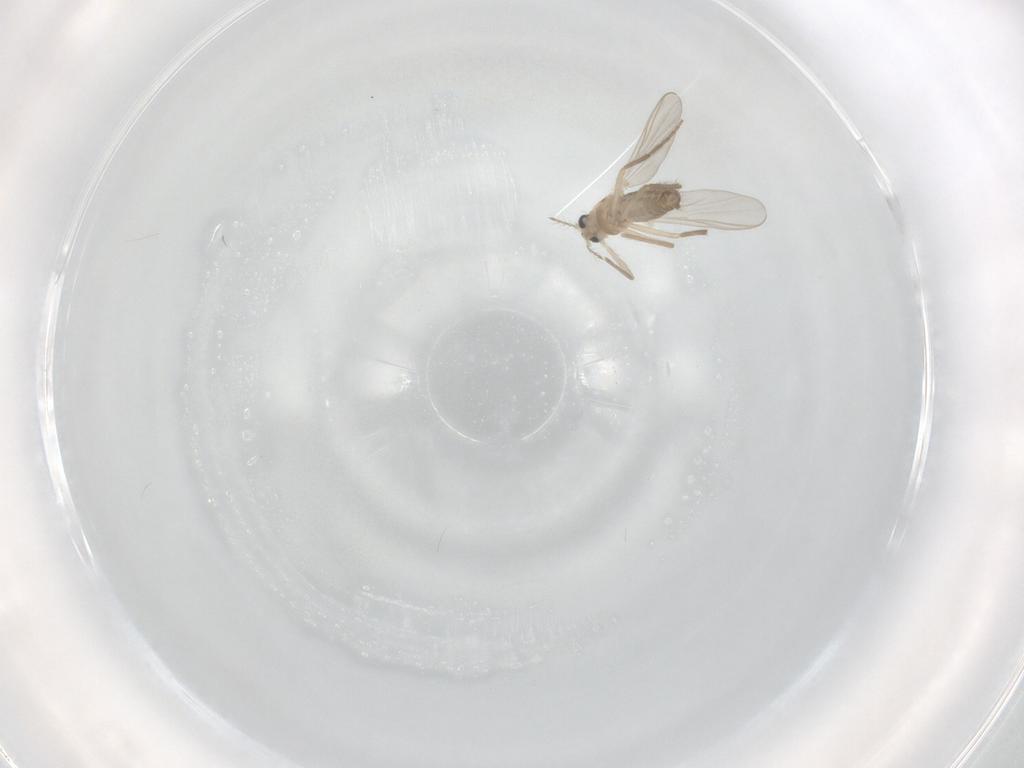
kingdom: Animalia
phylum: Arthropoda
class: Insecta
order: Diptera
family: Chironomidae
